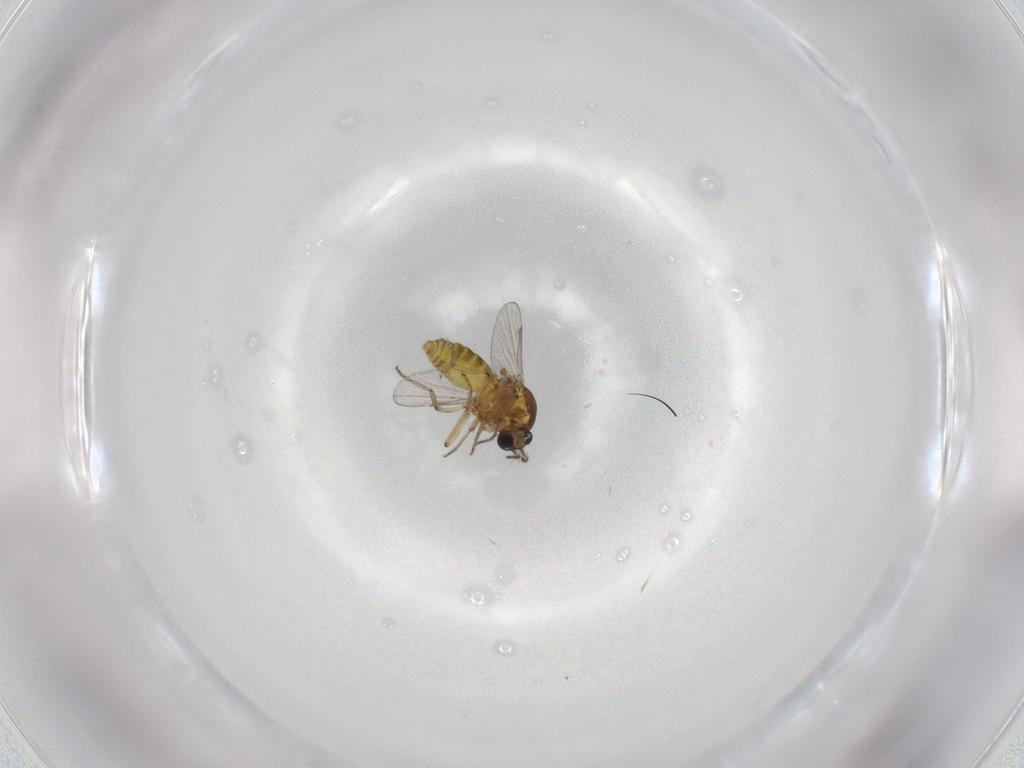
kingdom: Animalia
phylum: Arthropoda
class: Insecta
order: Diptera
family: Ceratopogonidae
